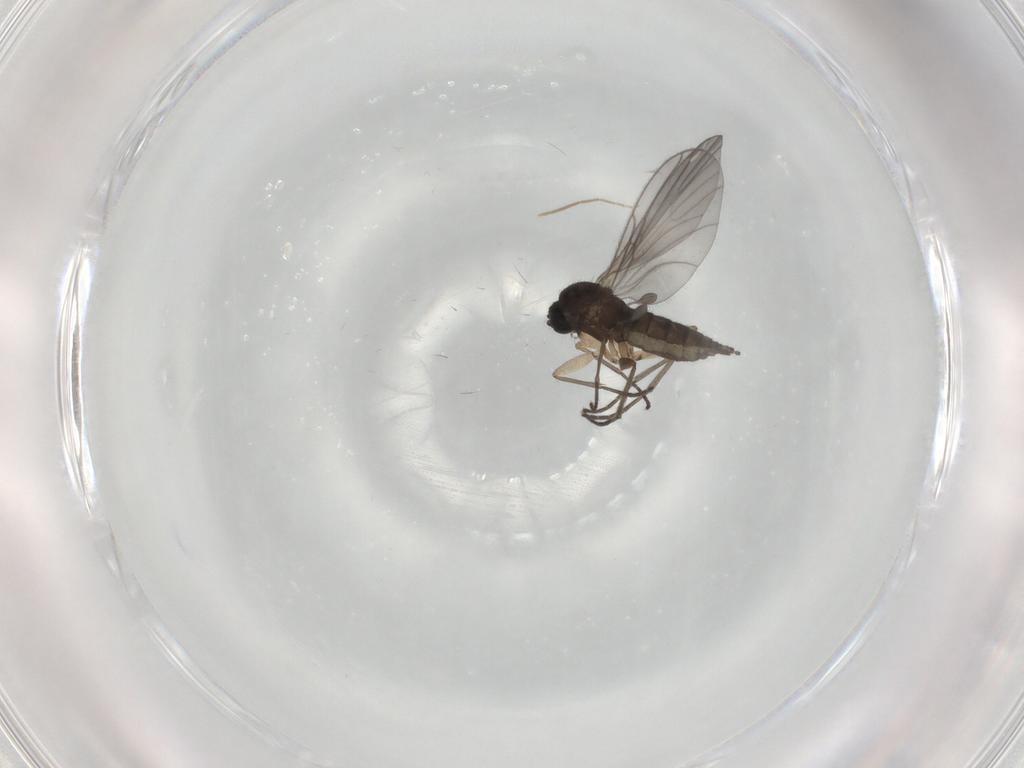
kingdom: Animalia
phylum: Arthropoda
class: Insecta
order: Diptera
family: Sciaridae
